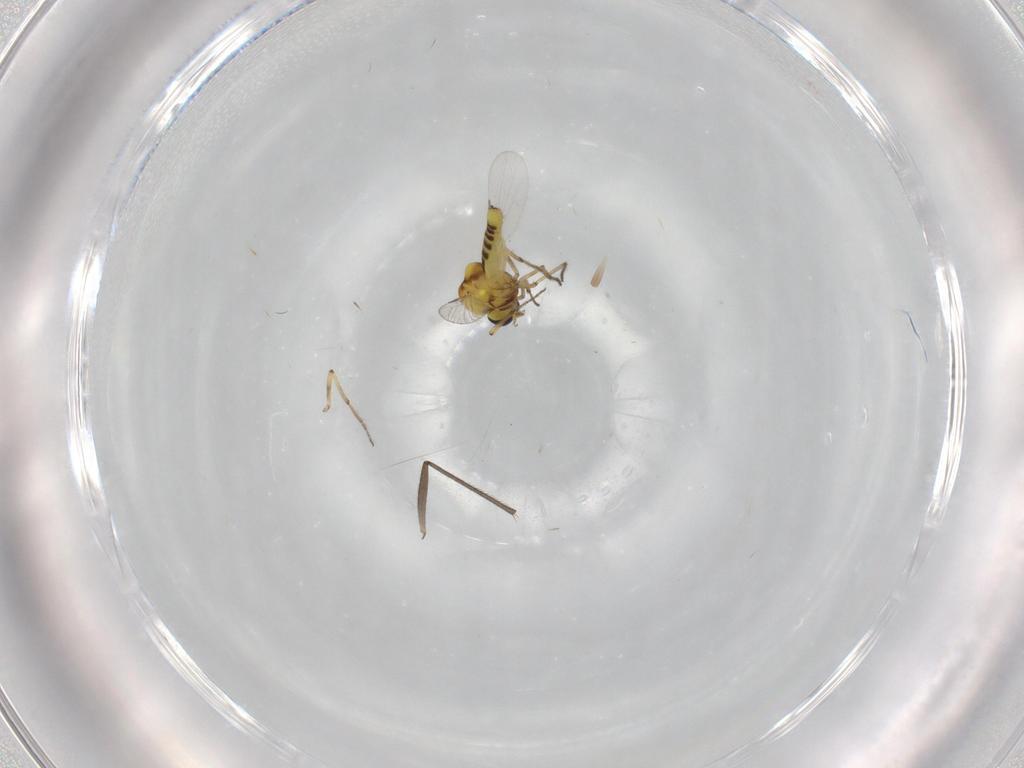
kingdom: Animalia
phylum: Arthropoda
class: Insecta
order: Diptera
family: Ceratopogonidae
